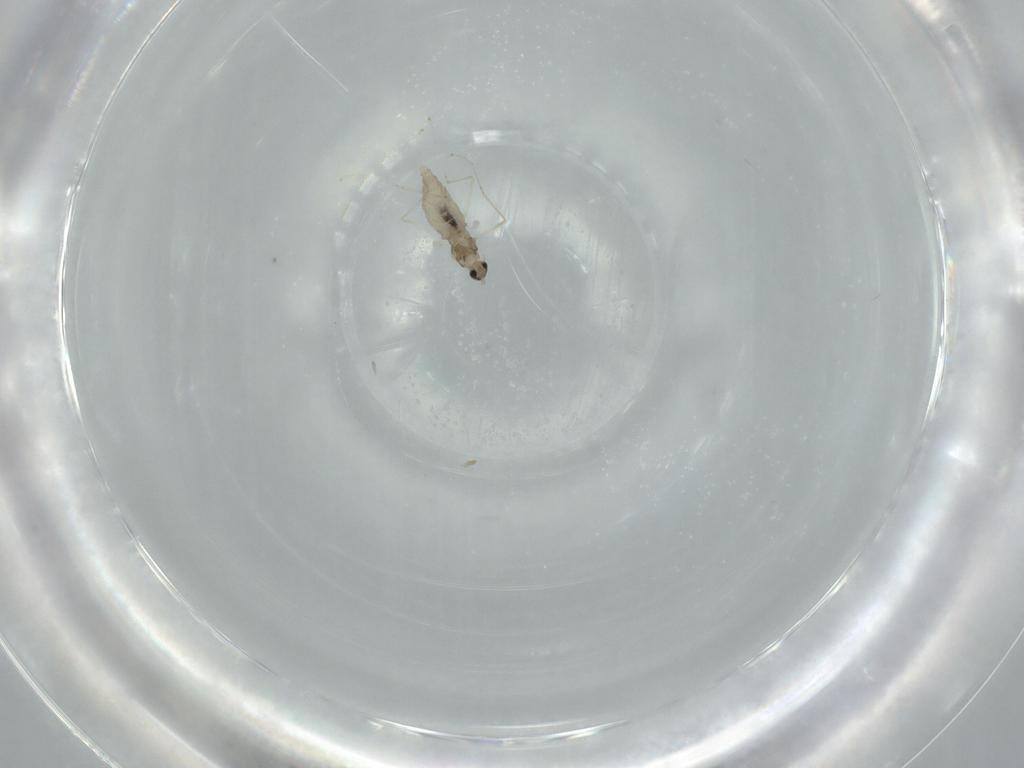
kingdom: Animalia
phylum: Arthropoda
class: Insecta
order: Diptera
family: Cecidomyiidae
